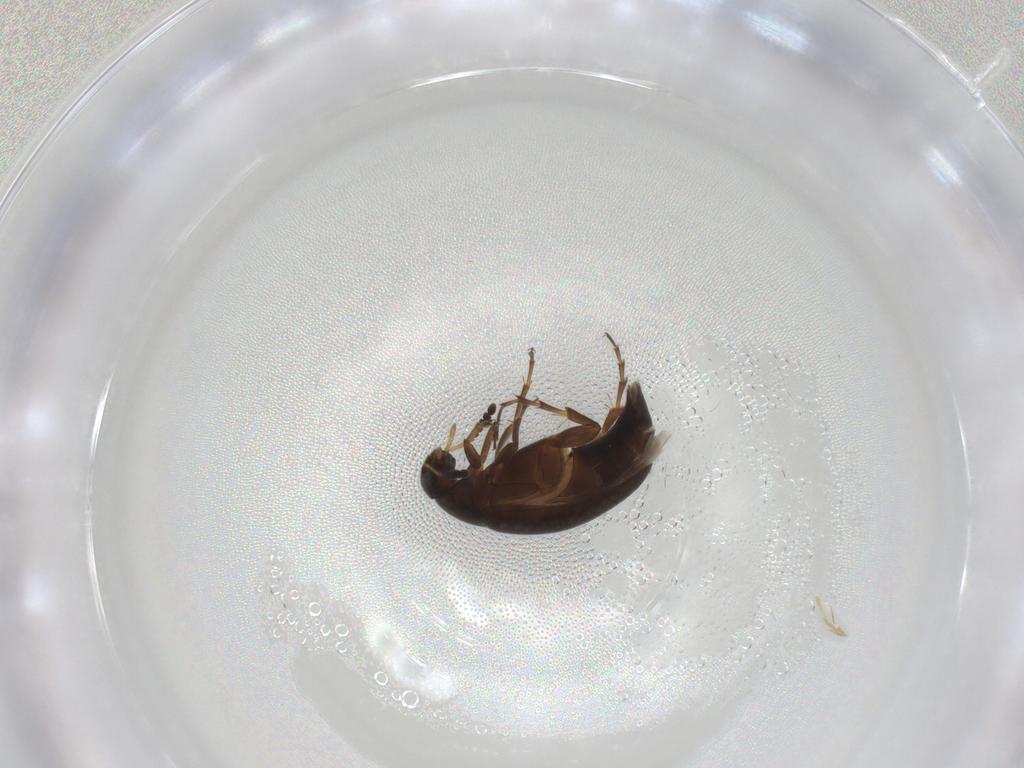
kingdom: Animalia
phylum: Arthropoda
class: Insecta
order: Coleoptera
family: Scraptiidae
